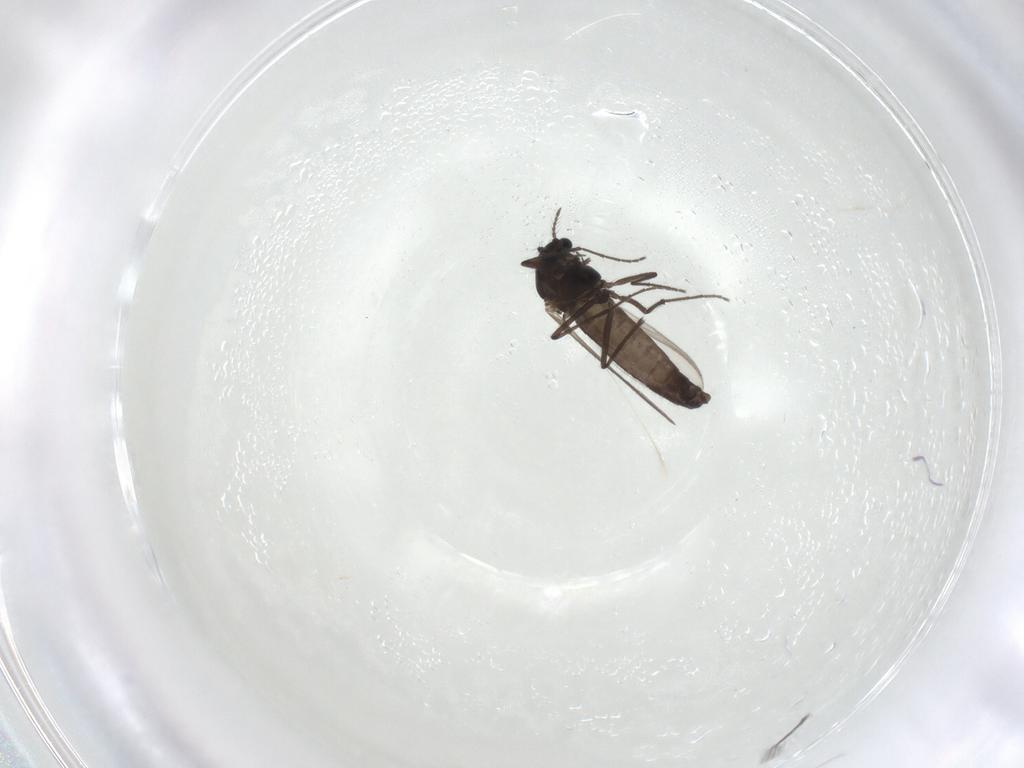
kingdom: Animalia
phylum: Arthropoda
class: Insecta
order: Diptera
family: Chironomidae
